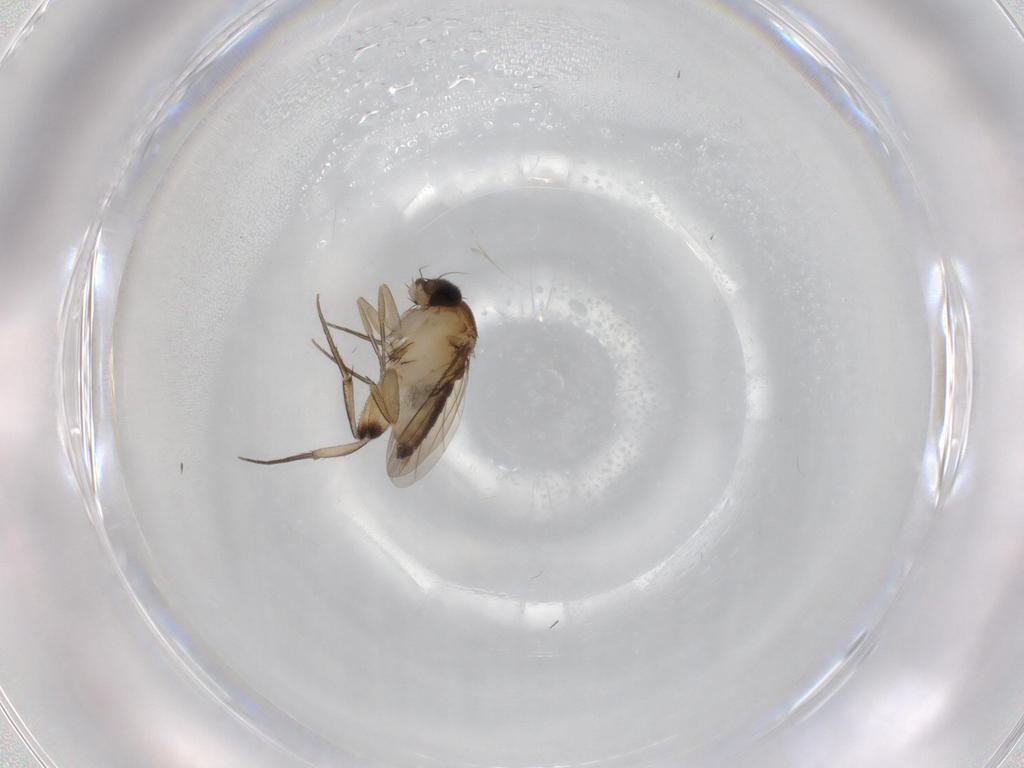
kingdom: Animalia
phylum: Arthropoda
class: Insecta
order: Diptera
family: Phoridae
